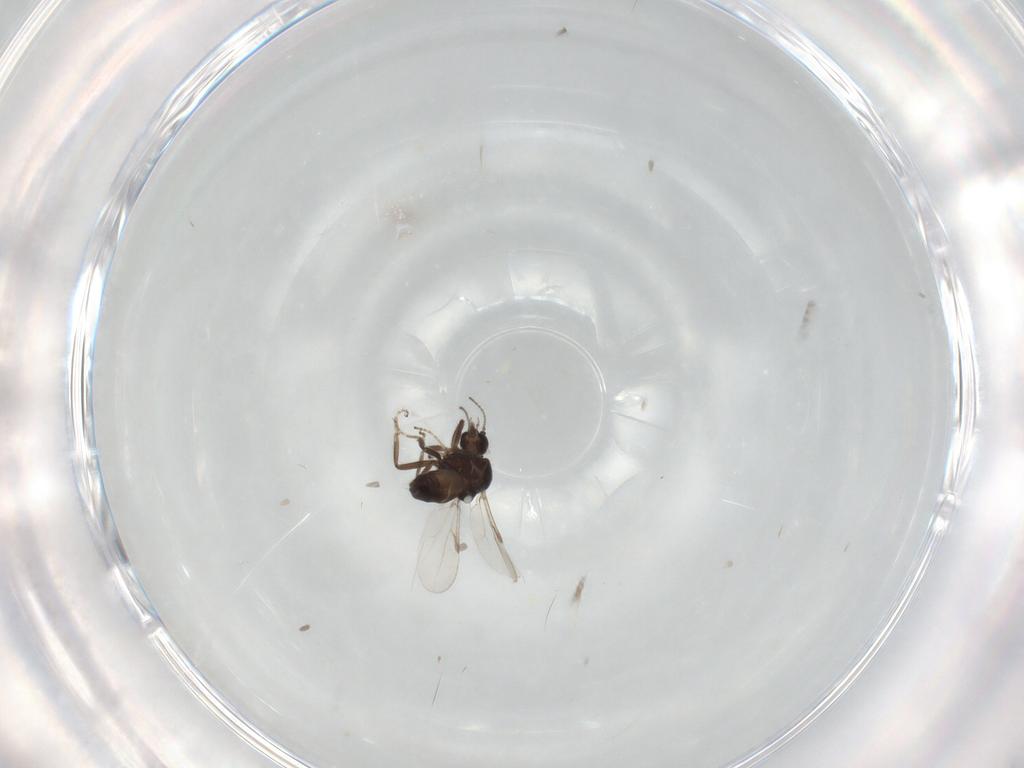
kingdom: Animalia
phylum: Arthropoda
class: Insecta
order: Diptera
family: Ceratopogonidae
